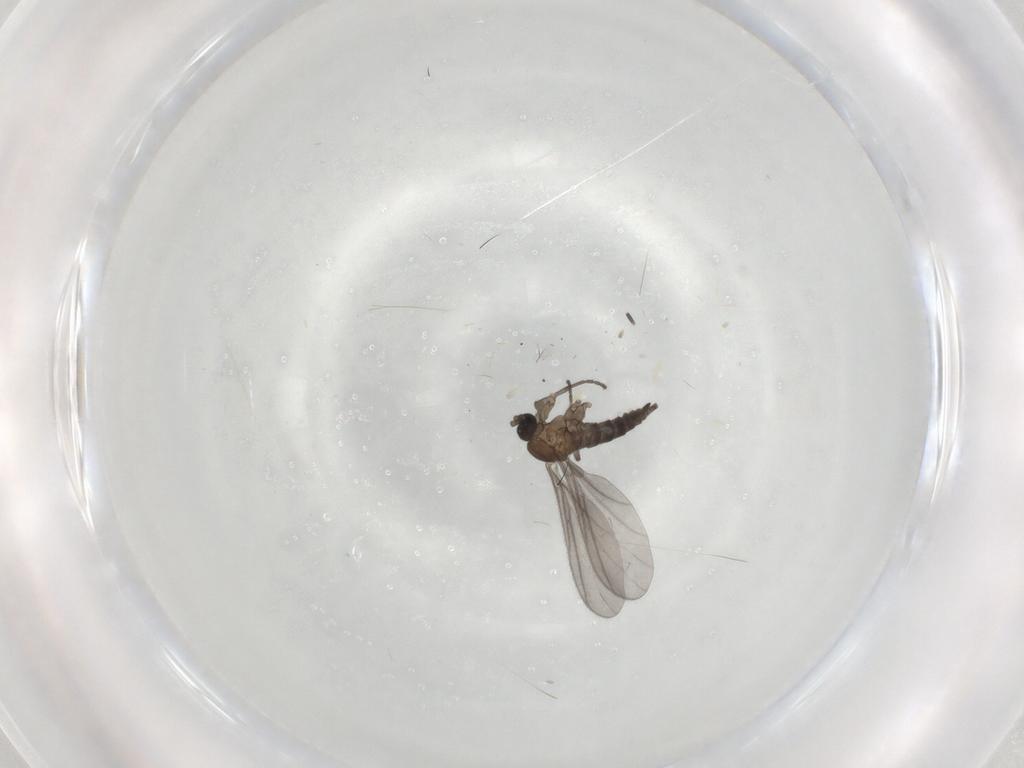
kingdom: Animalia
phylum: Arthropoda
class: Insecta
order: Diptera
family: Sciaridae
